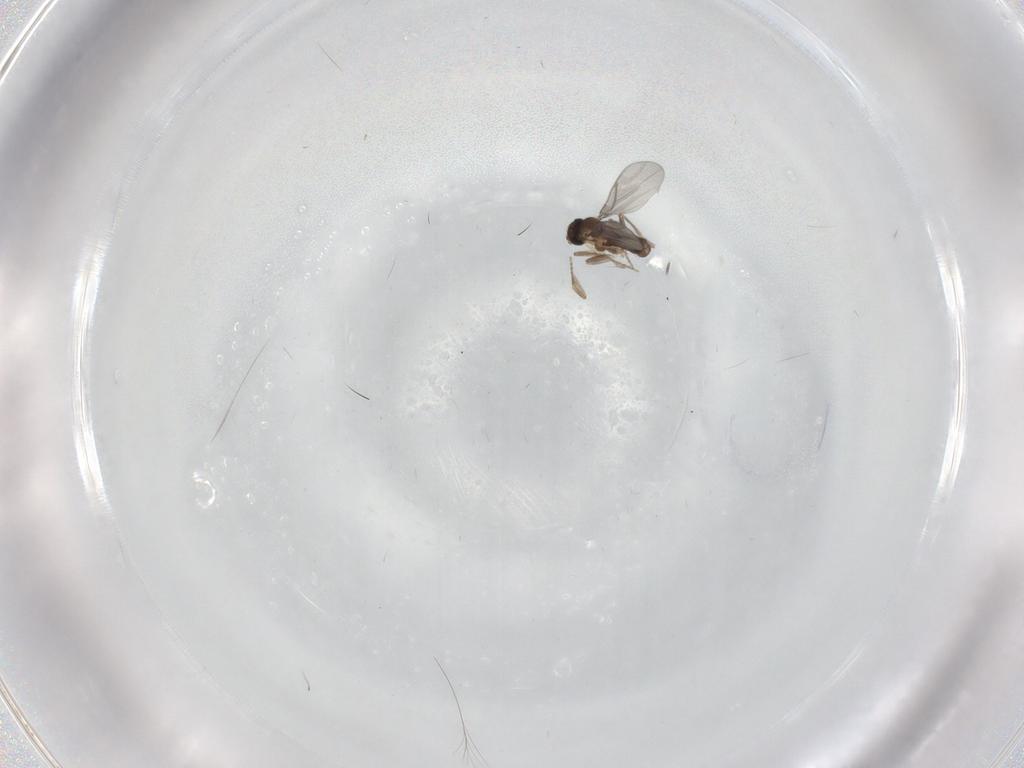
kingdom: Animalia
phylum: Arthropoda
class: Insecta
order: Diptera
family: Cecidomyiidae
